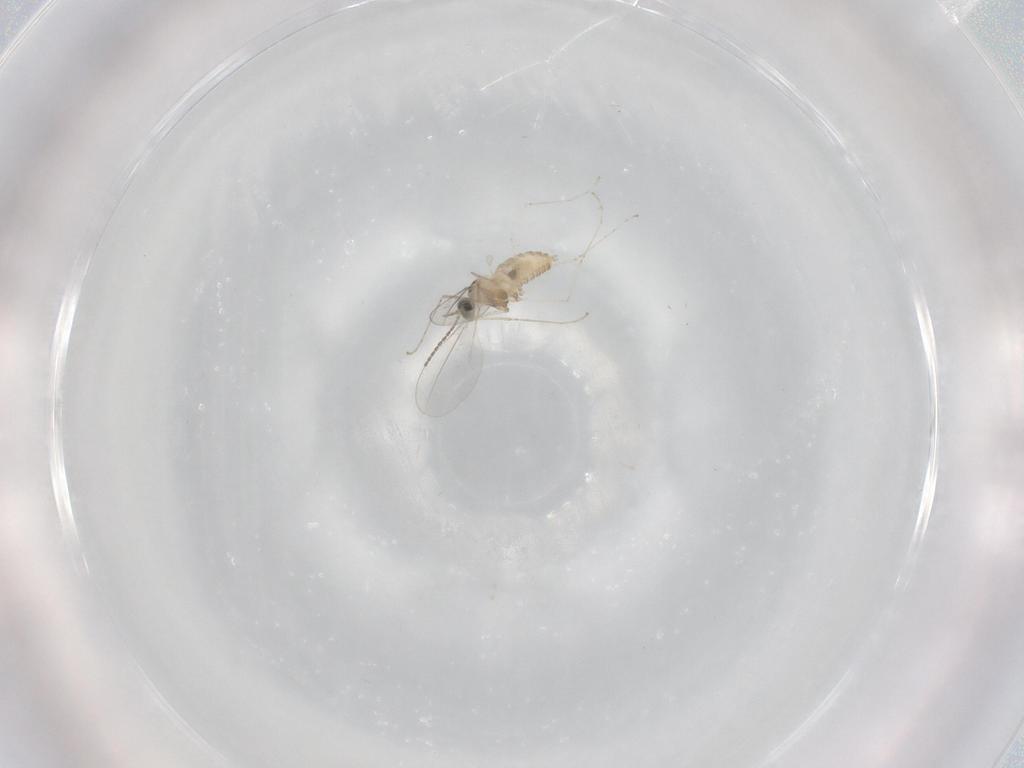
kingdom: Animalia
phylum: Arthropoda
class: Insecta
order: Diptera
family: Cecidomyiidae
